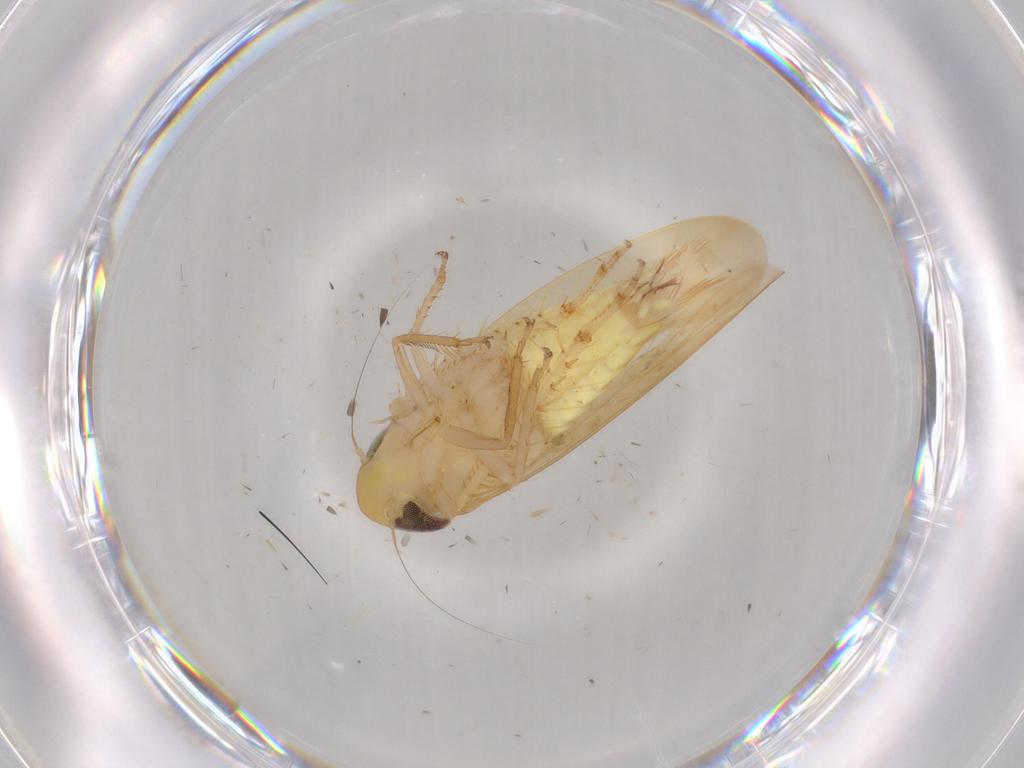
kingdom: Animalia
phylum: Arthropoda
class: Insecta
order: Hemiptera
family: Cicadellidae
